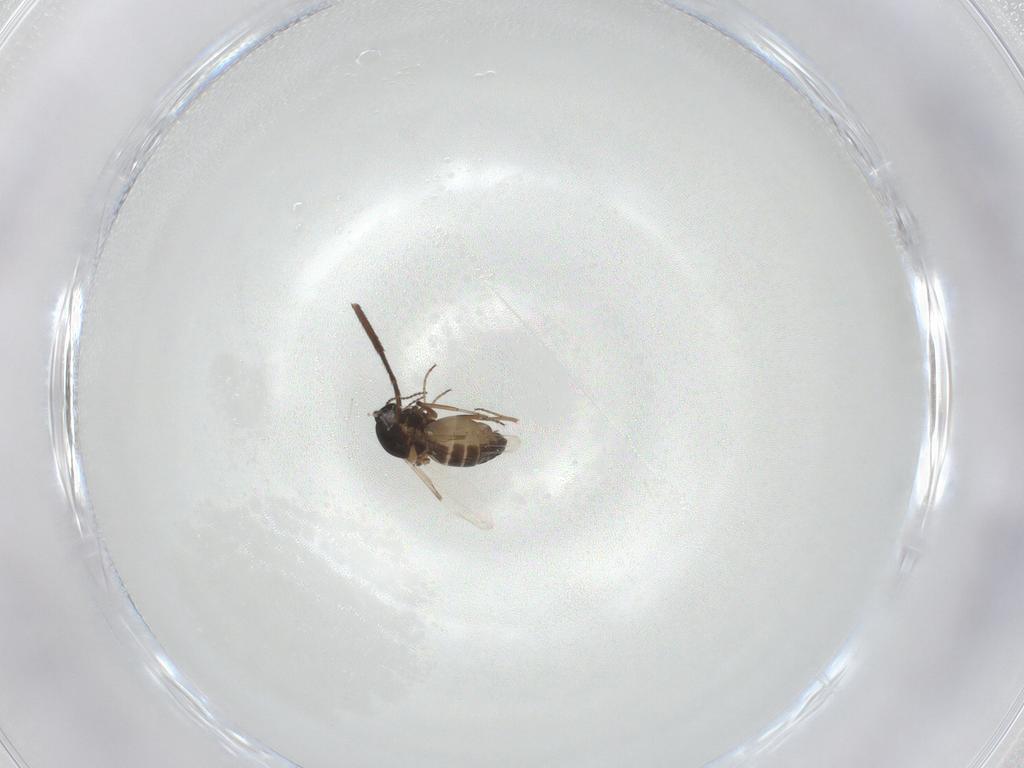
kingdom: Animalia
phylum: Arthropoda
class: Insecta
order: Diptera
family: Ceratopogonidae
